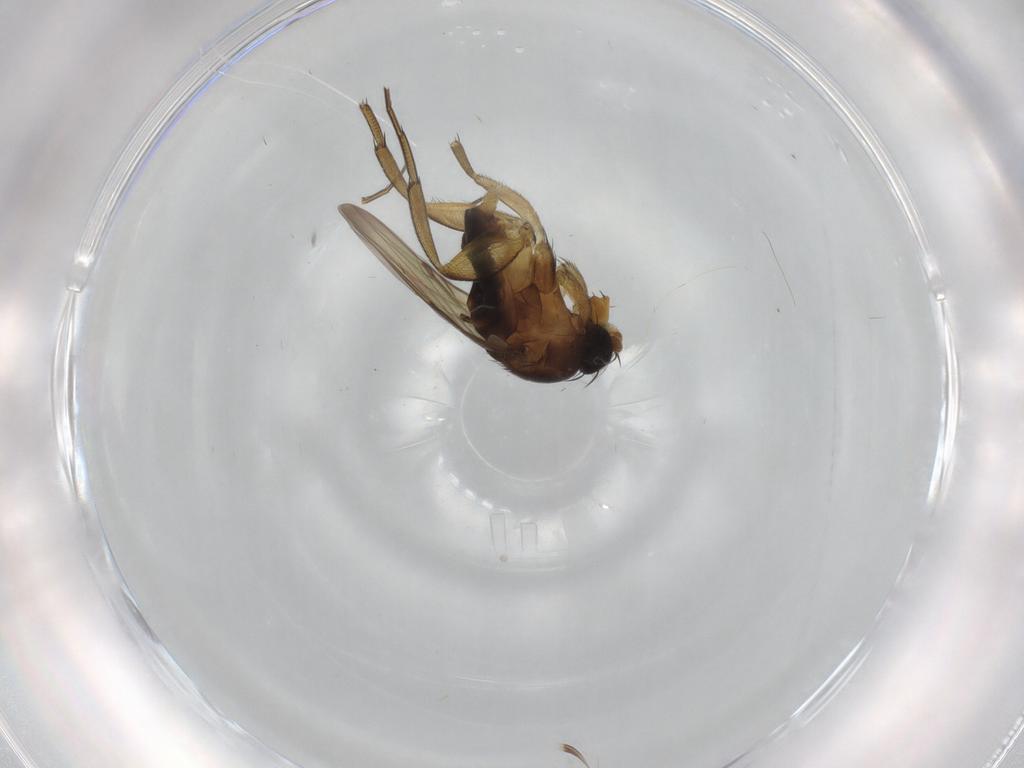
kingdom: Animalia
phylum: Arthropoda
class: Insecta
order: Diptera
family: Phoridae
